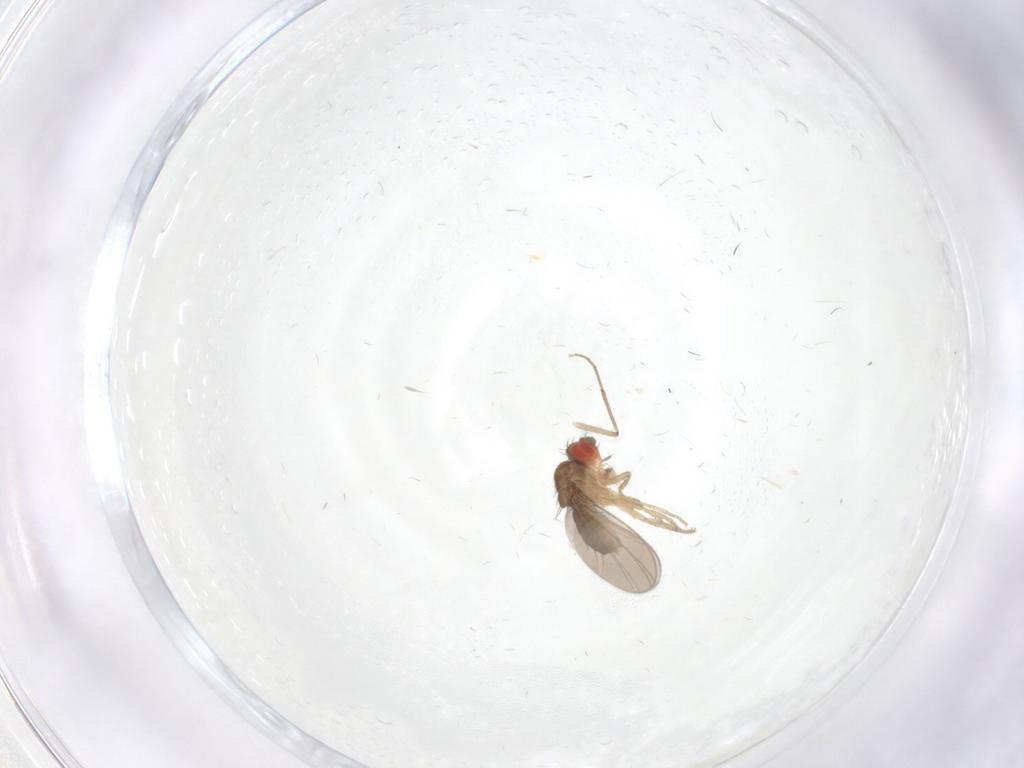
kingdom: Animalia
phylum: Arthropoda
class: Insecta
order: Diptera
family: Drosophilidae
